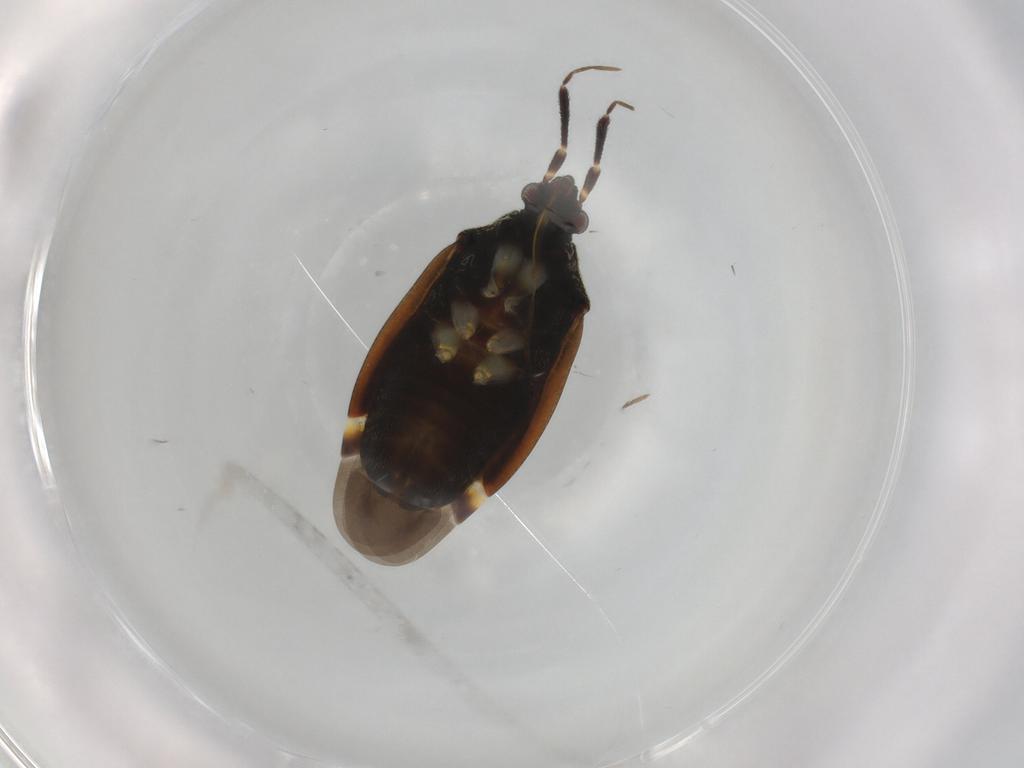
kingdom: Animalia
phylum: Arthropoda
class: Insecta
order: Hemiptera
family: Miridae
